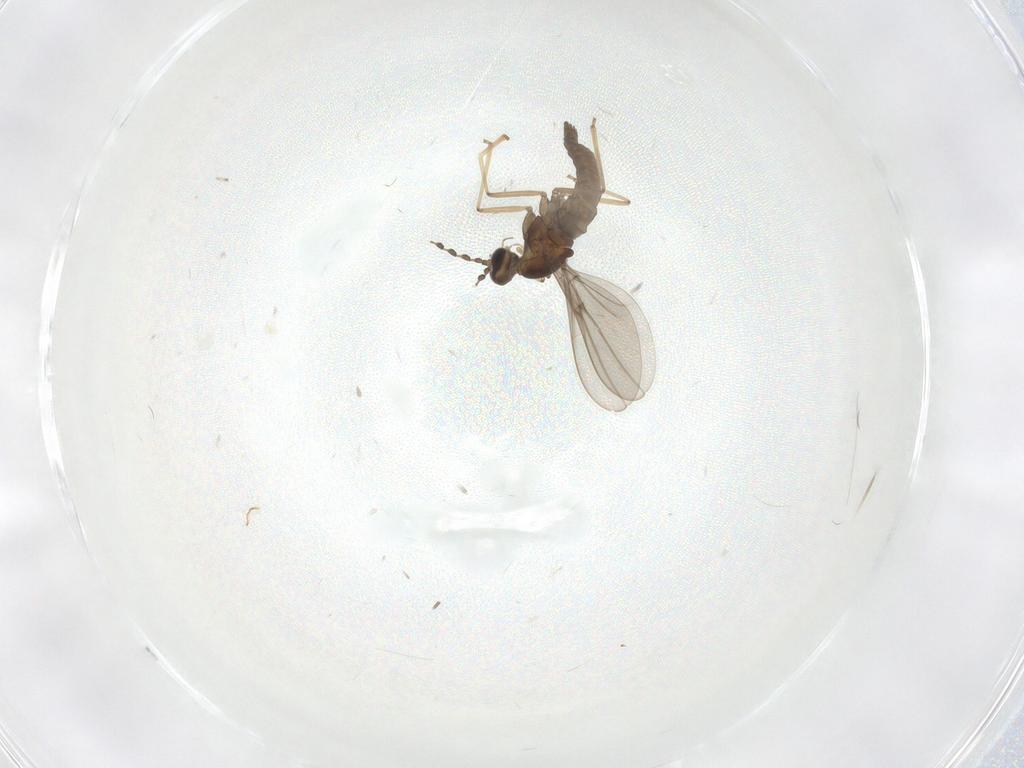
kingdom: Animalia
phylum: Arthropoda
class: Insecta
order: Diptera
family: Cecidomyiidae
